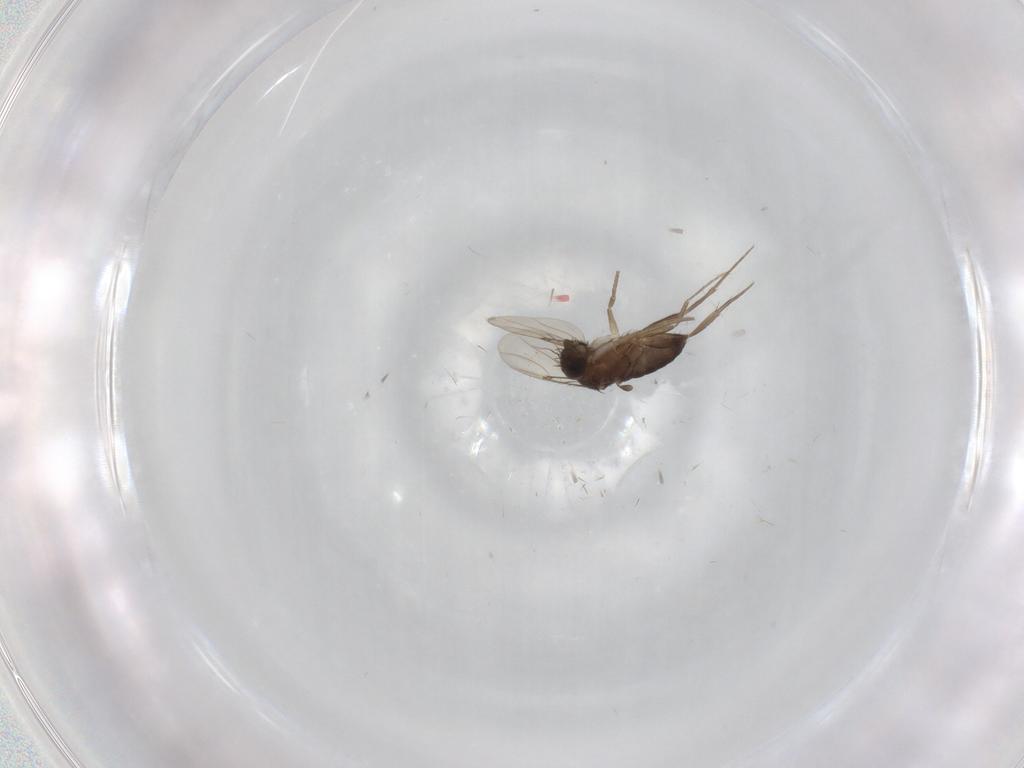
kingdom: Animalia
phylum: Arthropoda
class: Insecta
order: Diptera
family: Phoridae
